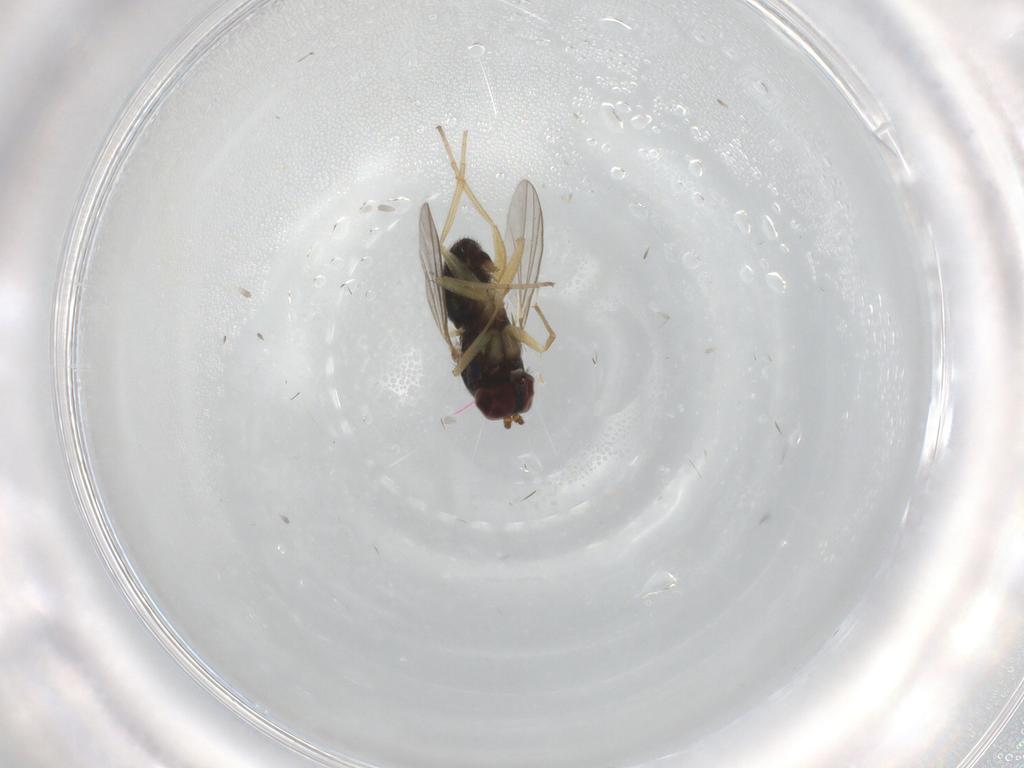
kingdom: Animalia
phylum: Arthropoda
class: Insecta
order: Diptera
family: Dolichopodidae
